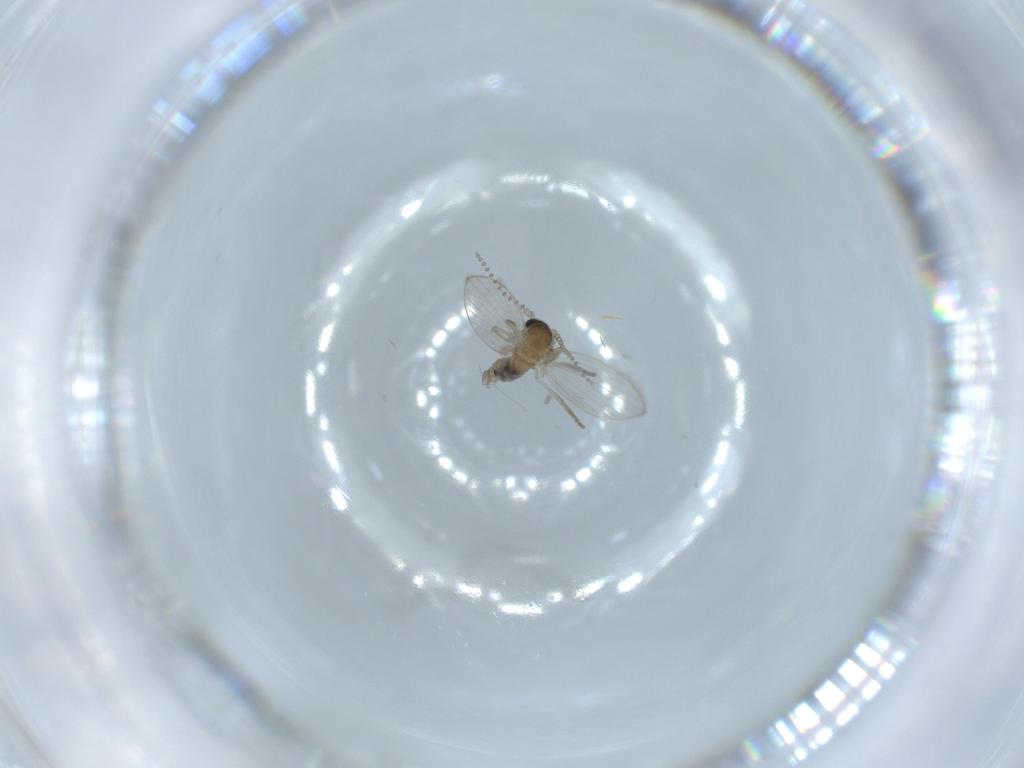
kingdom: Animalia
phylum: Arthropoda
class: Insecta
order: Diptera
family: Psychodidae
